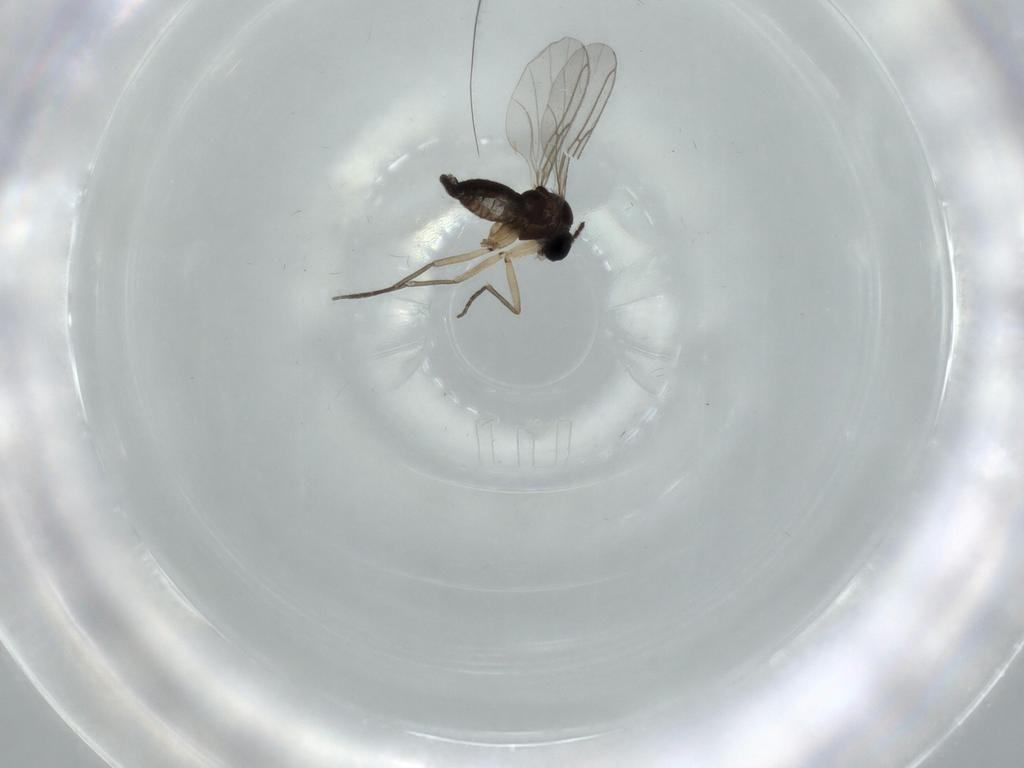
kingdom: Animalia
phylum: Arthropoda
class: Insecta
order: Diptera
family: Sciaridae
